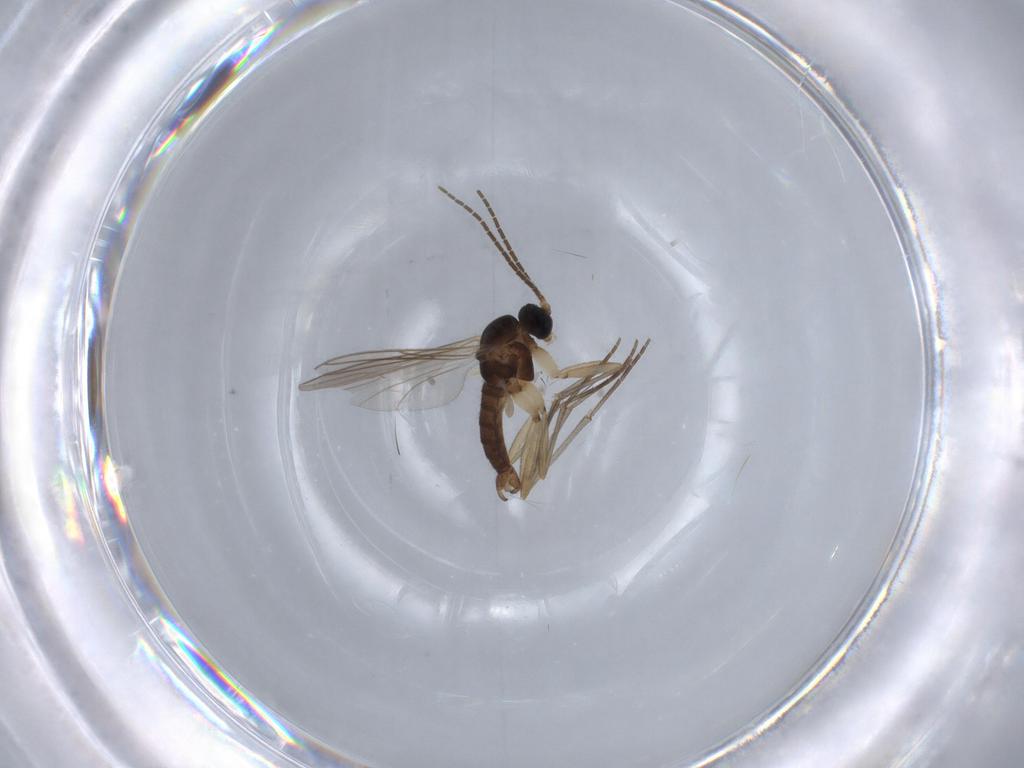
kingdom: Animalia
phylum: Arthropoda
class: Insecta
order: Diptera
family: Sciaridae
